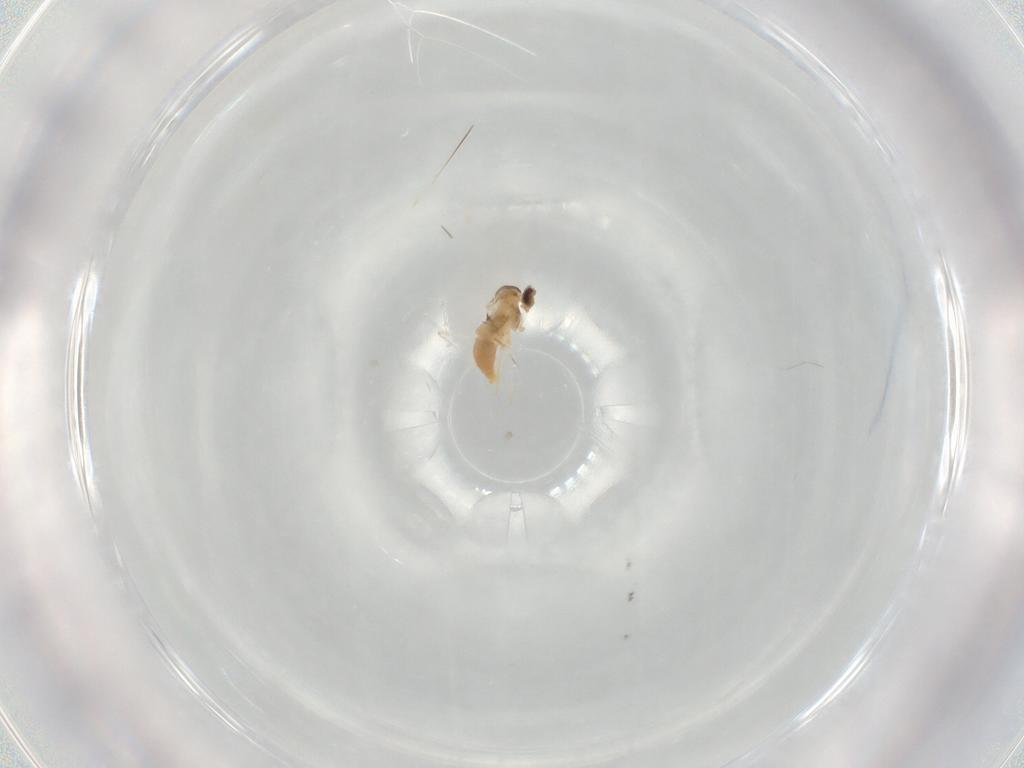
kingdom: Animalia
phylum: Arthropoda
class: Insecta
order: Diptera
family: Cecidomyiidae
